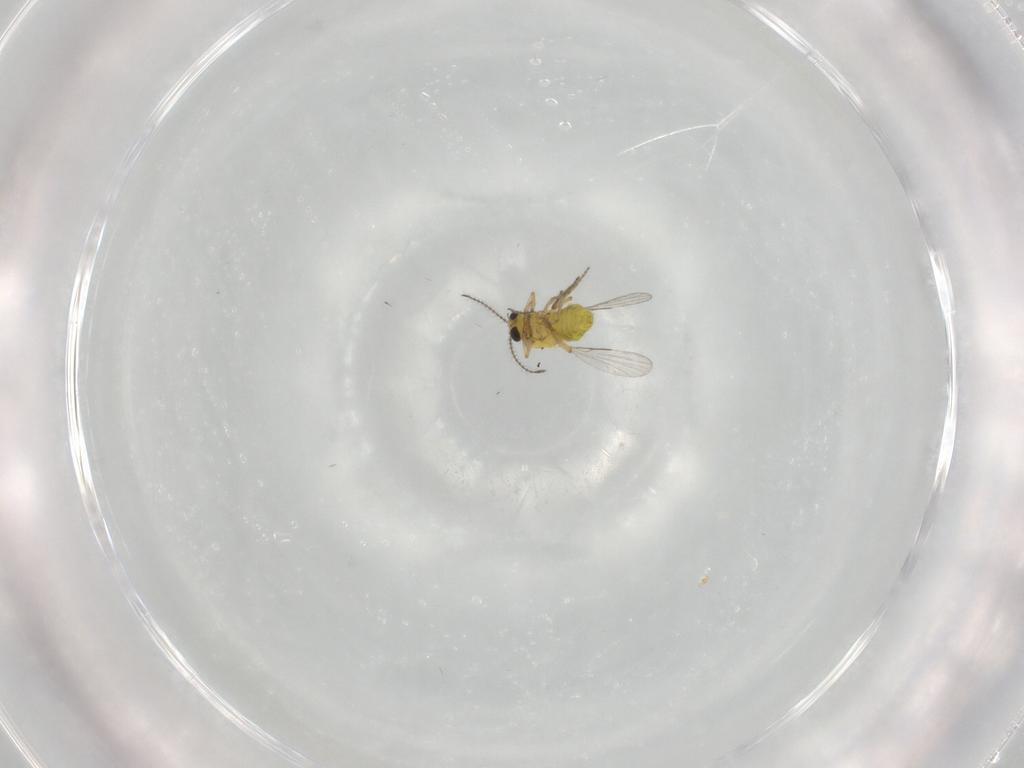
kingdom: Animalia
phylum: Arthropoda
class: Insecta
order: Diptera
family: Ceratopogonidae
